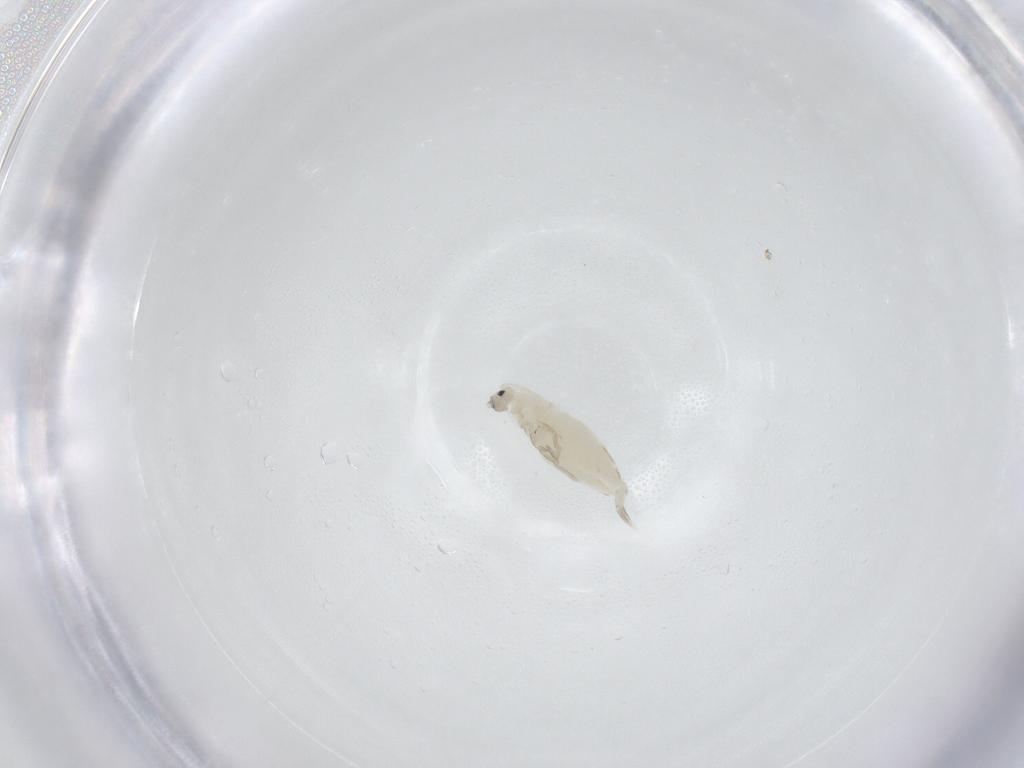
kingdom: Animalia
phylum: Arthropoda
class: Collembola
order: Entomobryomorpha
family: Entomobryidae
